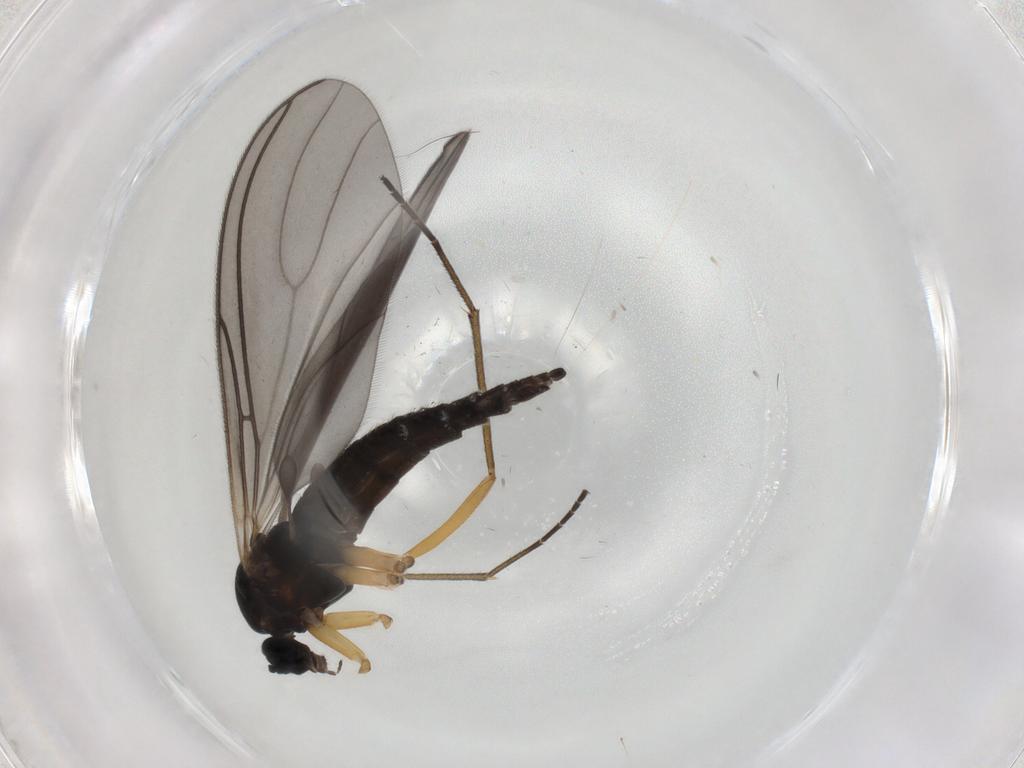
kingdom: Animalia
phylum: Arthropoda
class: Insecta
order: Diptera
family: Sciaridae
